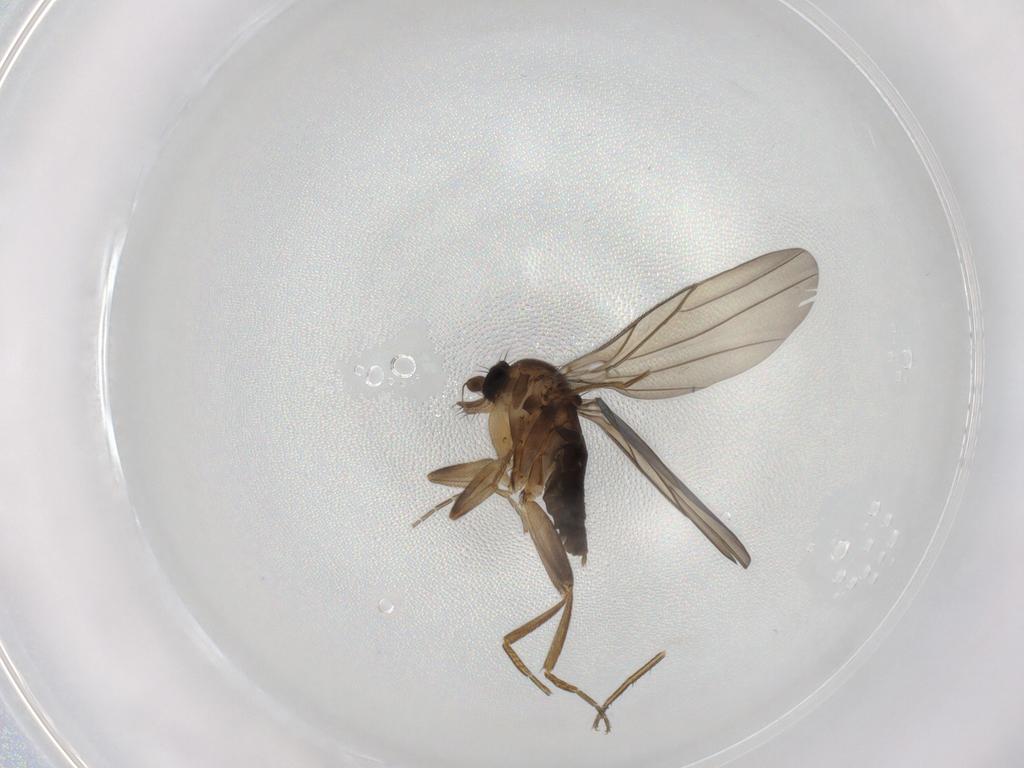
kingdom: Animalia
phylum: Arthropoda
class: Insecta
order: Diptera
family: Phoridae
